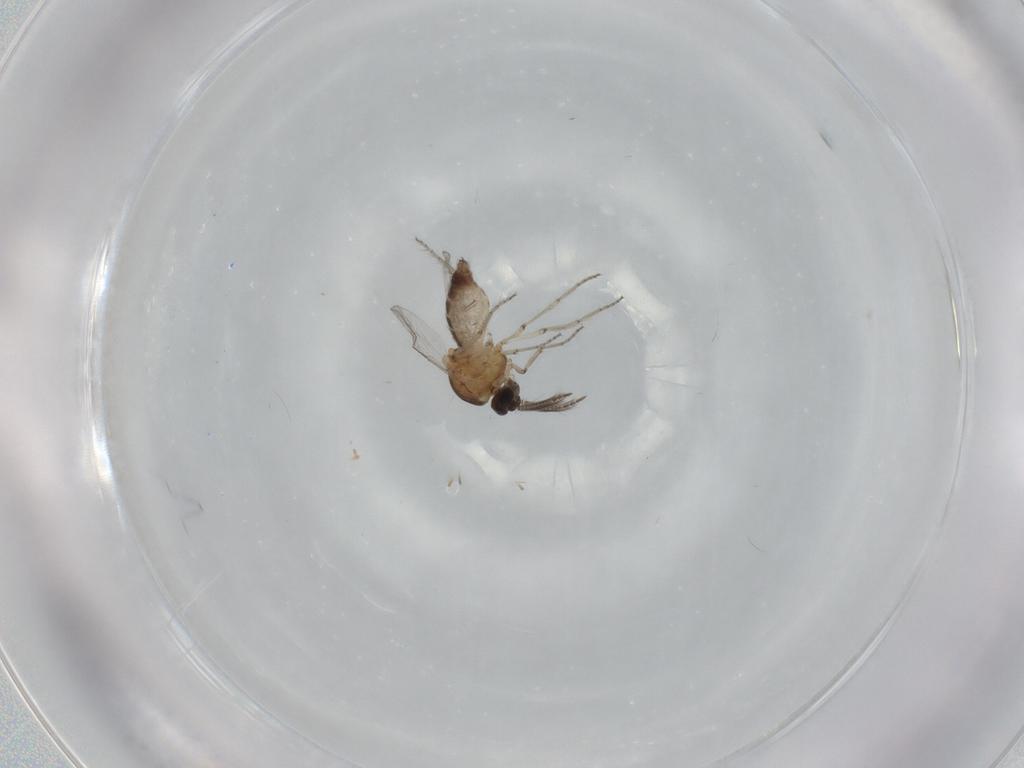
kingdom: Animalia
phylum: Arthropoda
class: Insecta
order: Diptera
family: Ceratopogonidae
